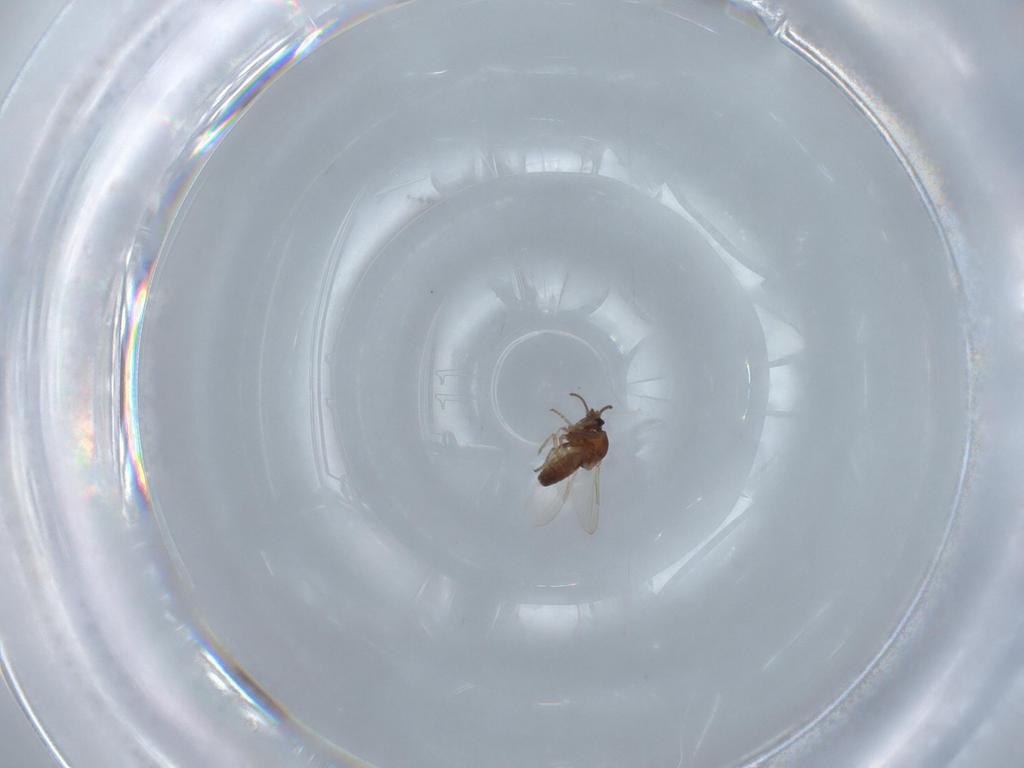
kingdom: Animalia
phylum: Arthropoda
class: Insecta
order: Diptera
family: Ceratopogonidae
